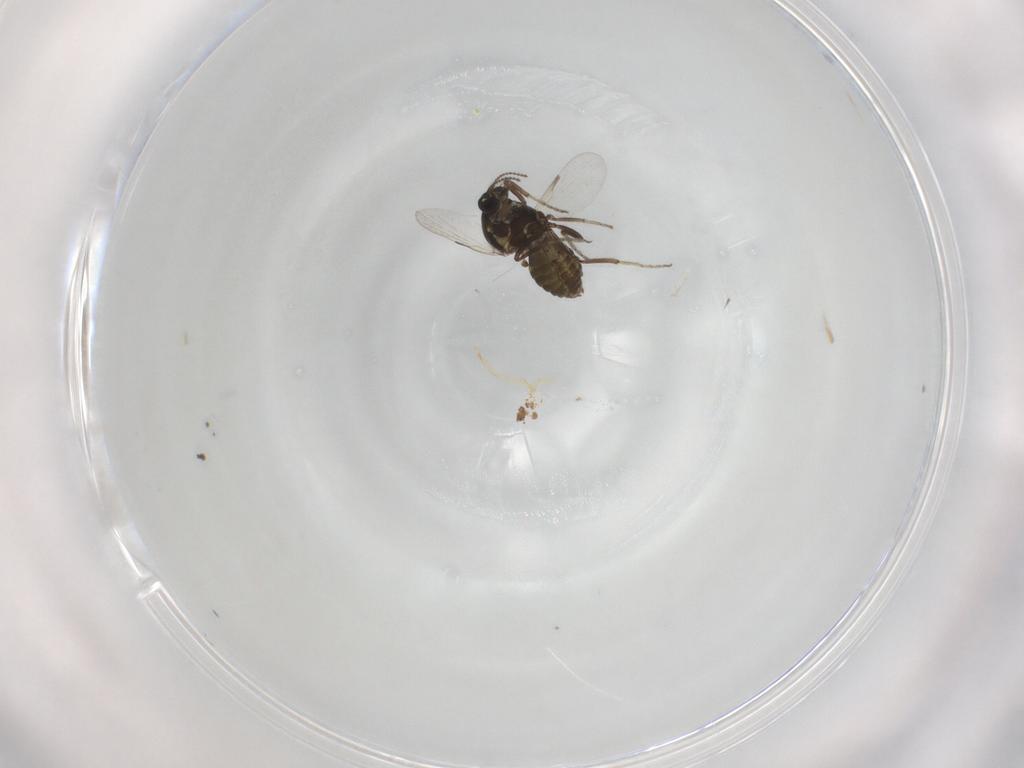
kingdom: Animalia
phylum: Arthropoda
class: Insecta
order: Diptera
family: Ceratopogonidae
